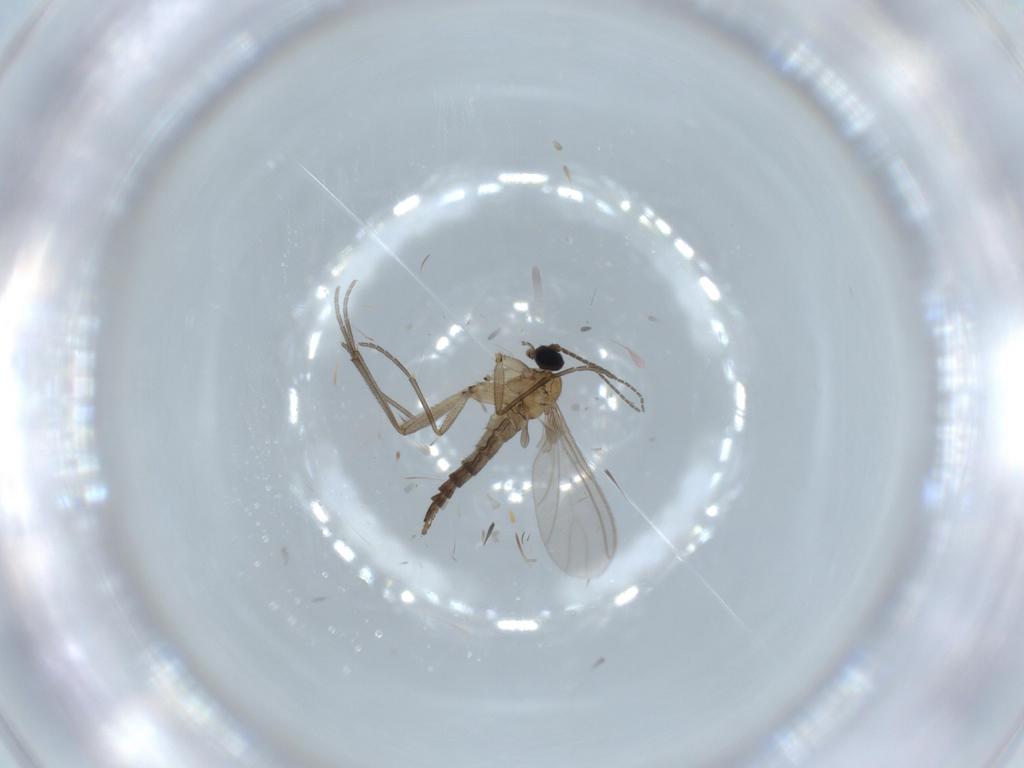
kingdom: Animalia
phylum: Arthropoda
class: Insecta
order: Diptera
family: Sciaridae
